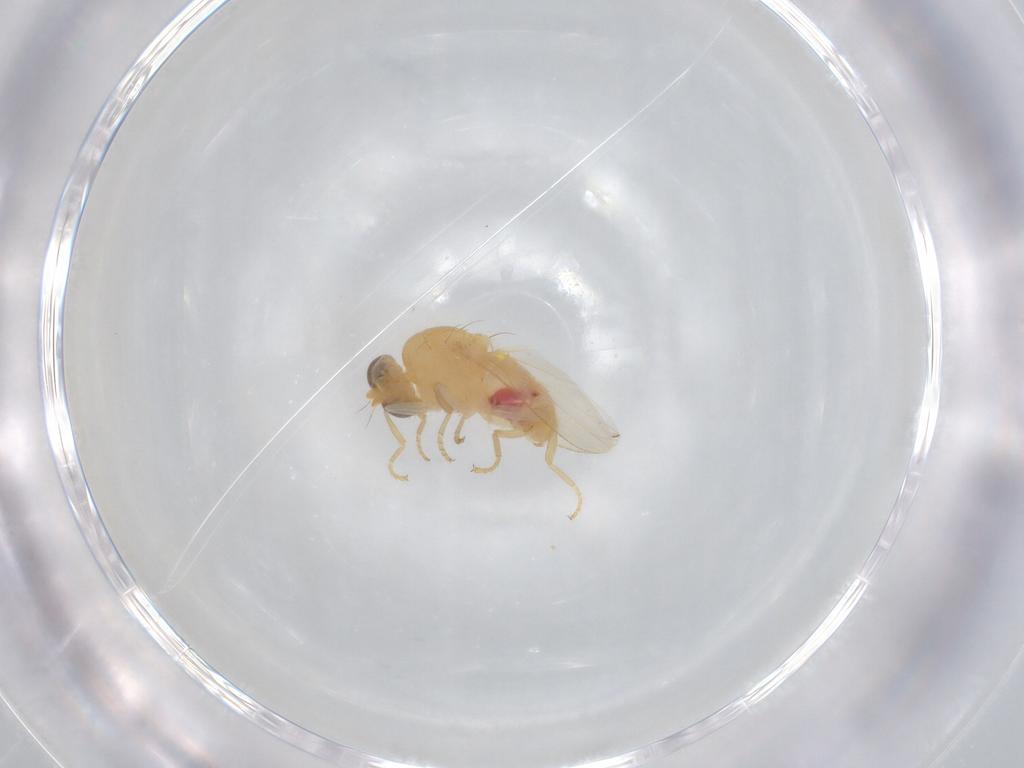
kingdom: Animalia
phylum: Arthropoda
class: Insecta
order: Diptera
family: Chyromyidae
